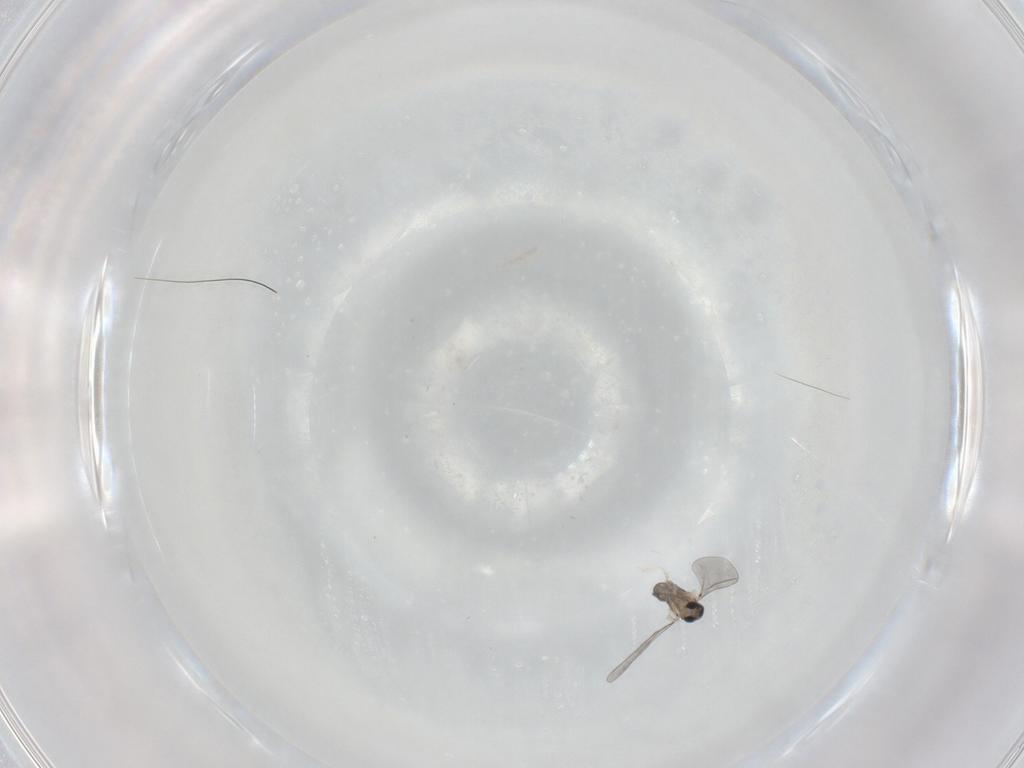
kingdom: Animalia
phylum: Arthropoda
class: Insecta
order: Diptera
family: Cecidomyiidae
